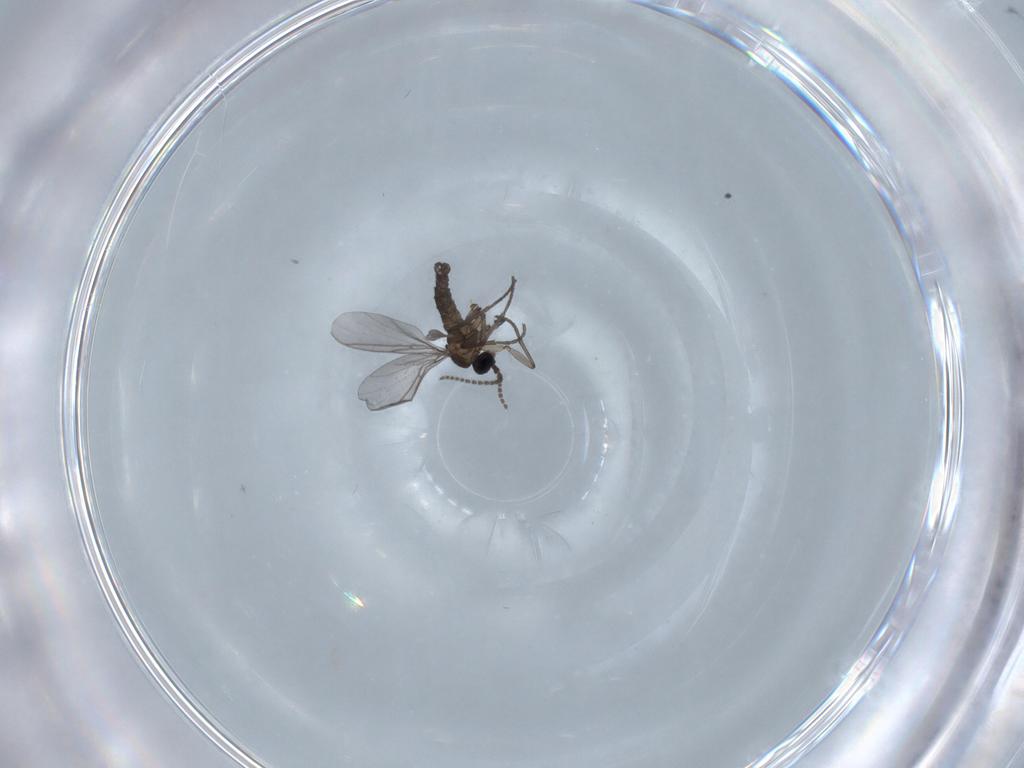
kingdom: Animalia
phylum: Arthropoda
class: Insecta
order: Diptera
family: Chironomidae
